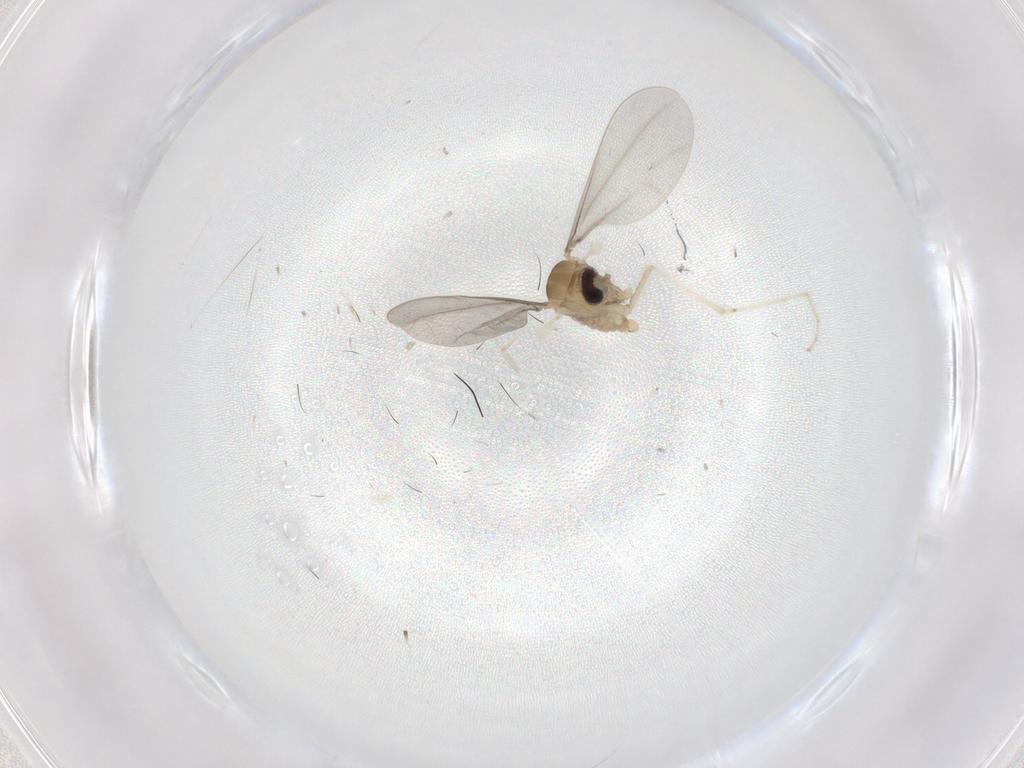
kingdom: Animalia
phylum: Arthropoda
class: Insecta
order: Diptera
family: Cecidomyiidae
